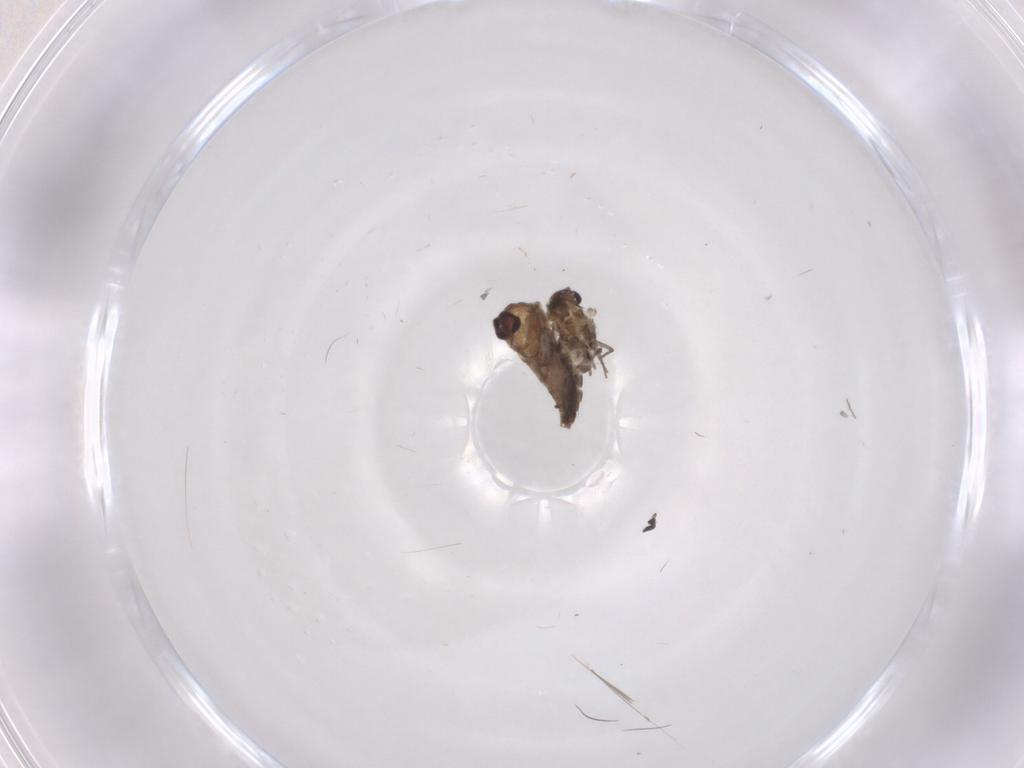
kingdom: Animalia
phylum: Arthropoda
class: Insecta
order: Diptera
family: Chironomidae
